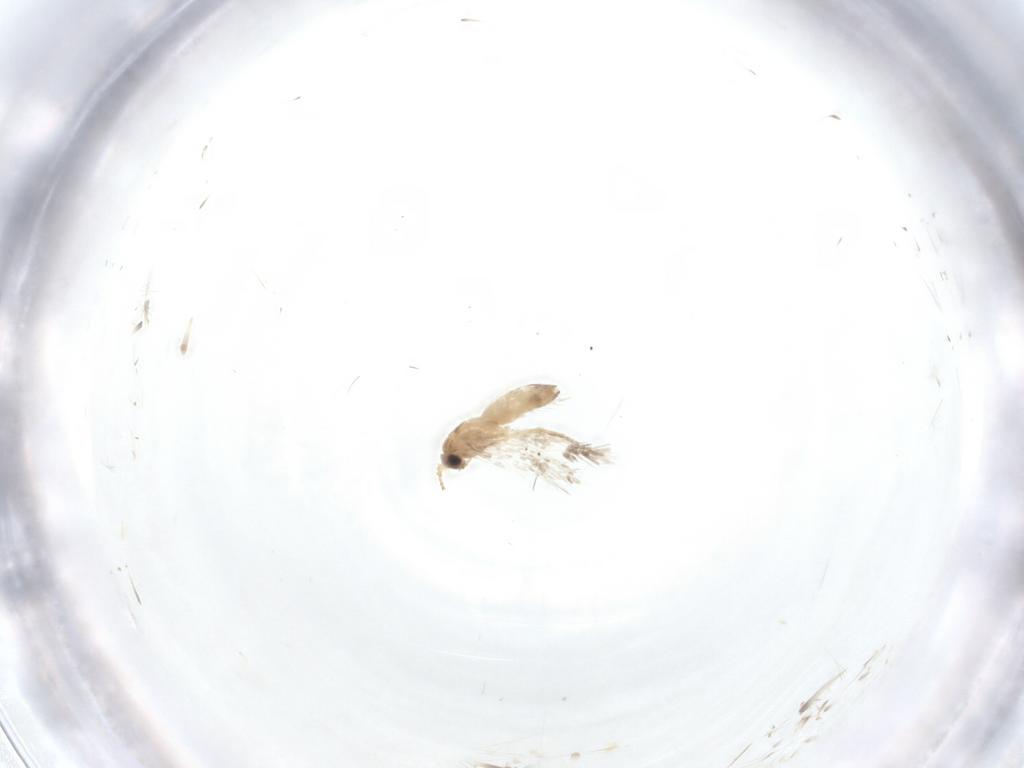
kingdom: Animalia
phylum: Arthropoda
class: Insecta
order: Lepidoptera
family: Nepticulidae
